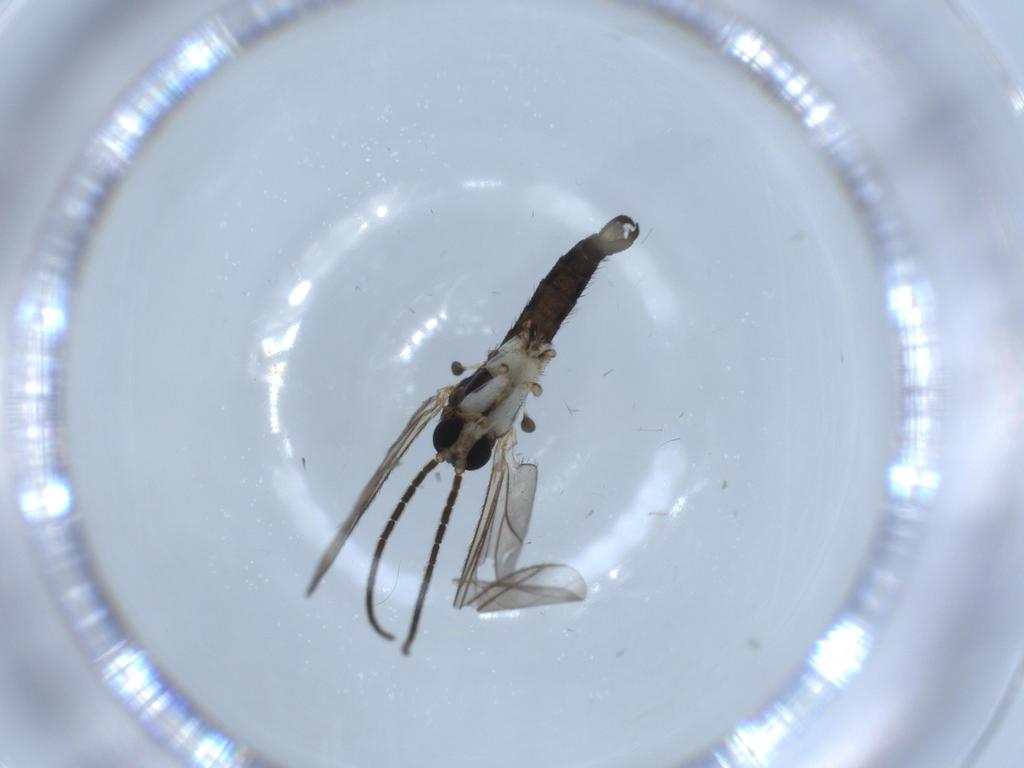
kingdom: Animalia
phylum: Arthropoda
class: Insecta
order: Diptera
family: Sciaridae
